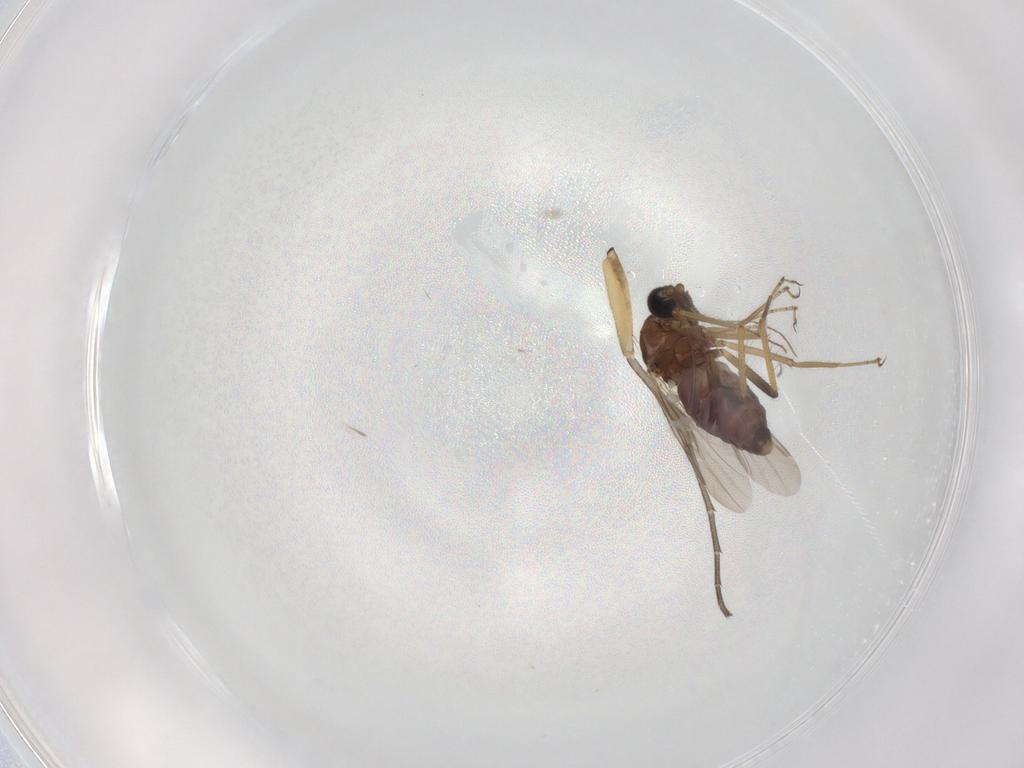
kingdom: Animalia
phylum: Arthropoda
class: Insecta
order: Diptera
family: Ceratopogonidae
